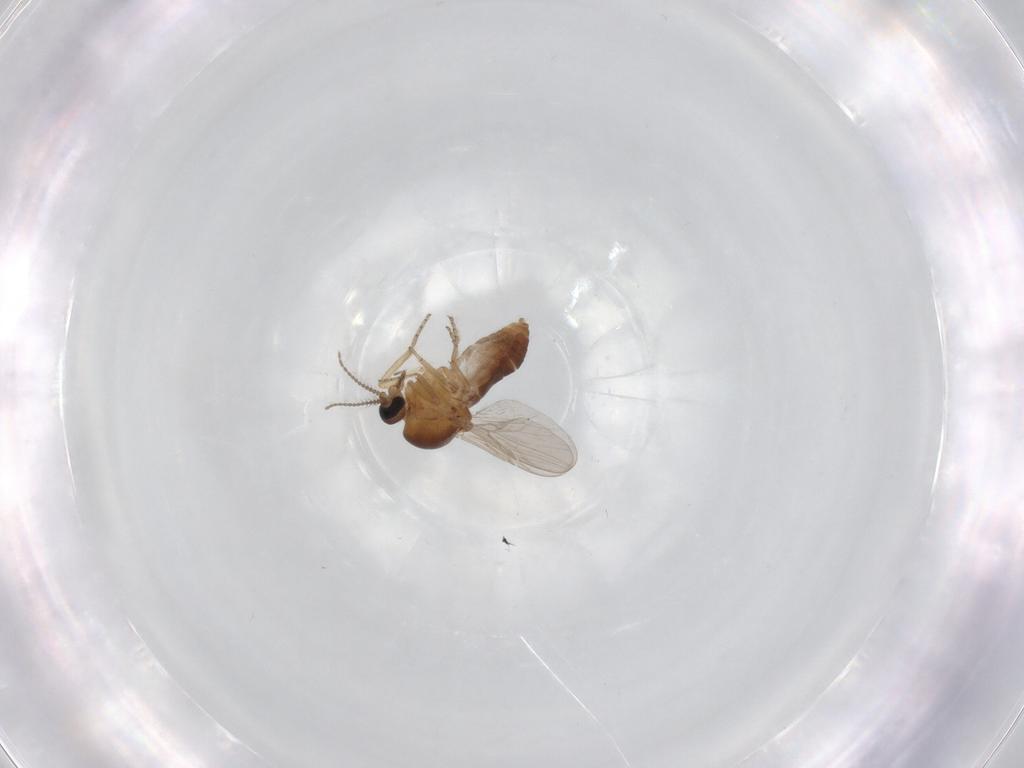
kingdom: Animalia
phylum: Arthropoda
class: Insecta
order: Diptera
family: Ceratopogonidae
